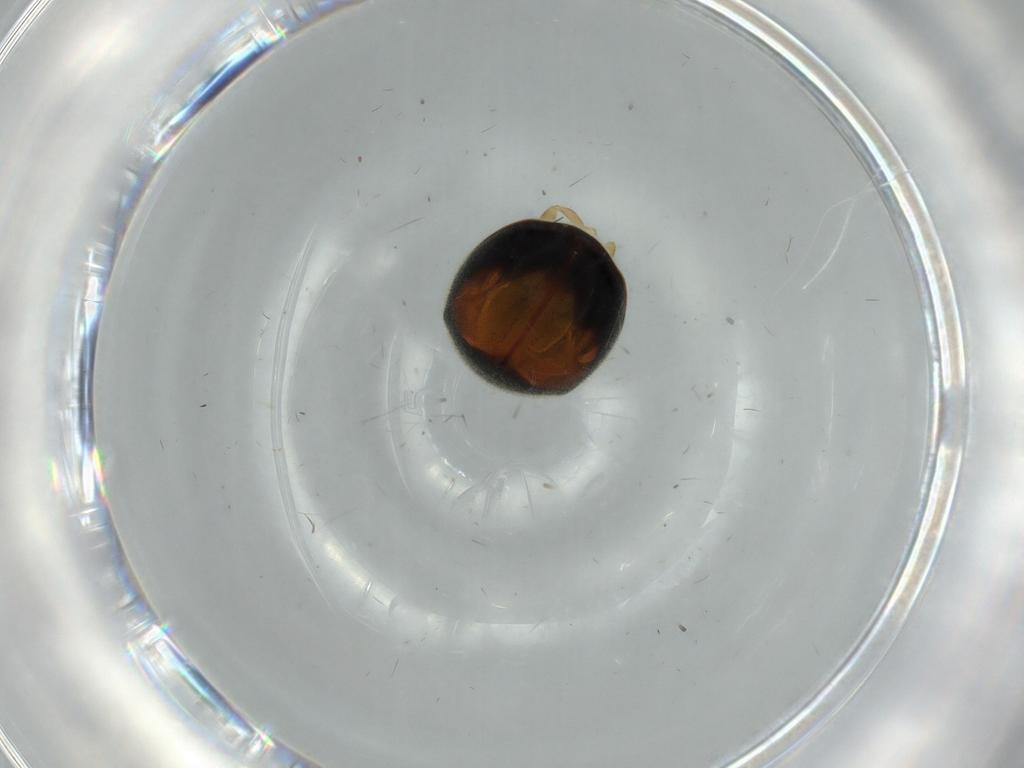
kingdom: Animalia
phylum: Arthropoda
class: Insecta
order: Coleoptera
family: Coccinellidae
